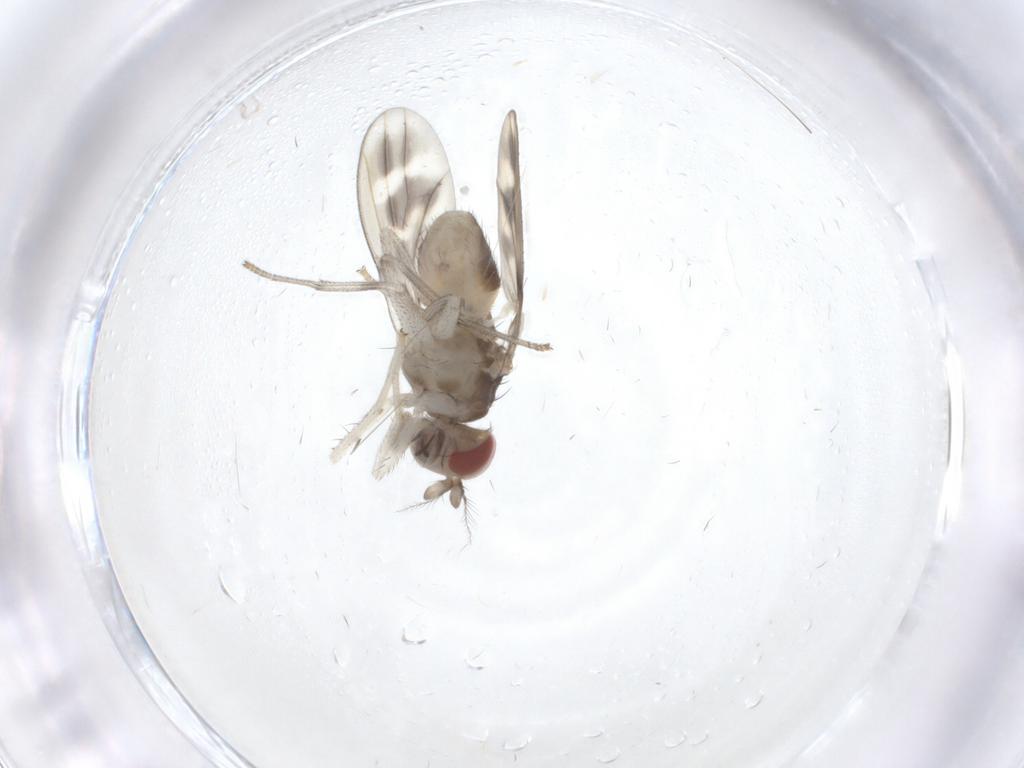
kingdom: Animalia
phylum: Arthropoda
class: Insecta
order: Diptera
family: Lauxaniidae
